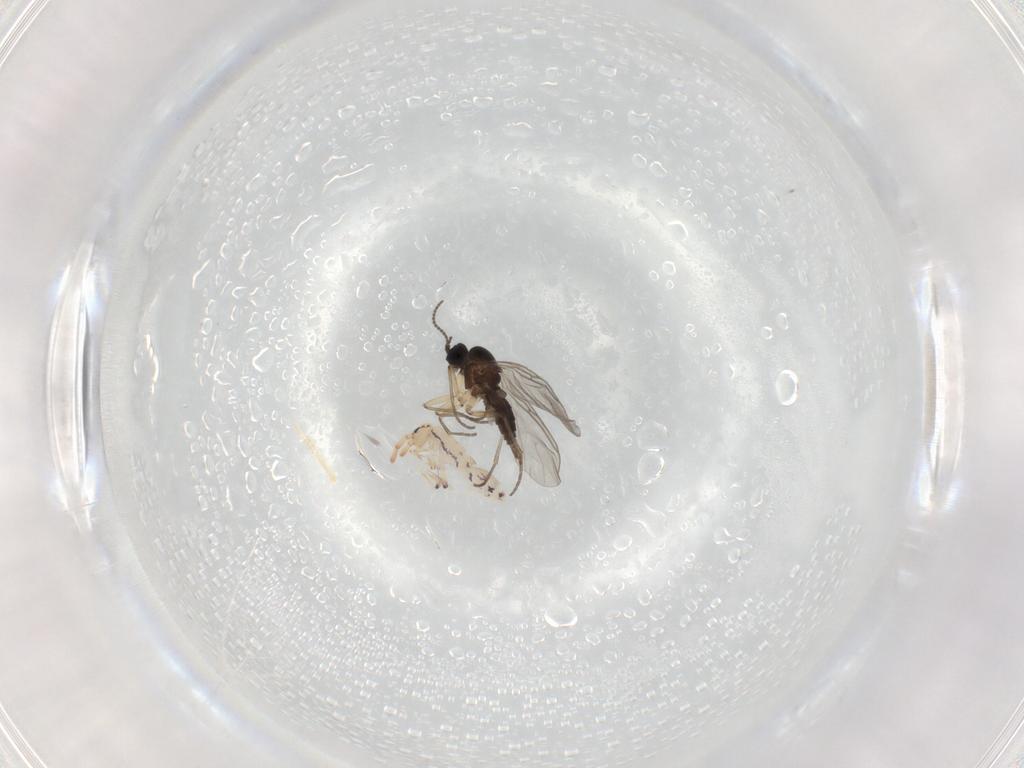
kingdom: Animalia
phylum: Arthropoda
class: Insecta
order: Diptera
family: Sciaridae
